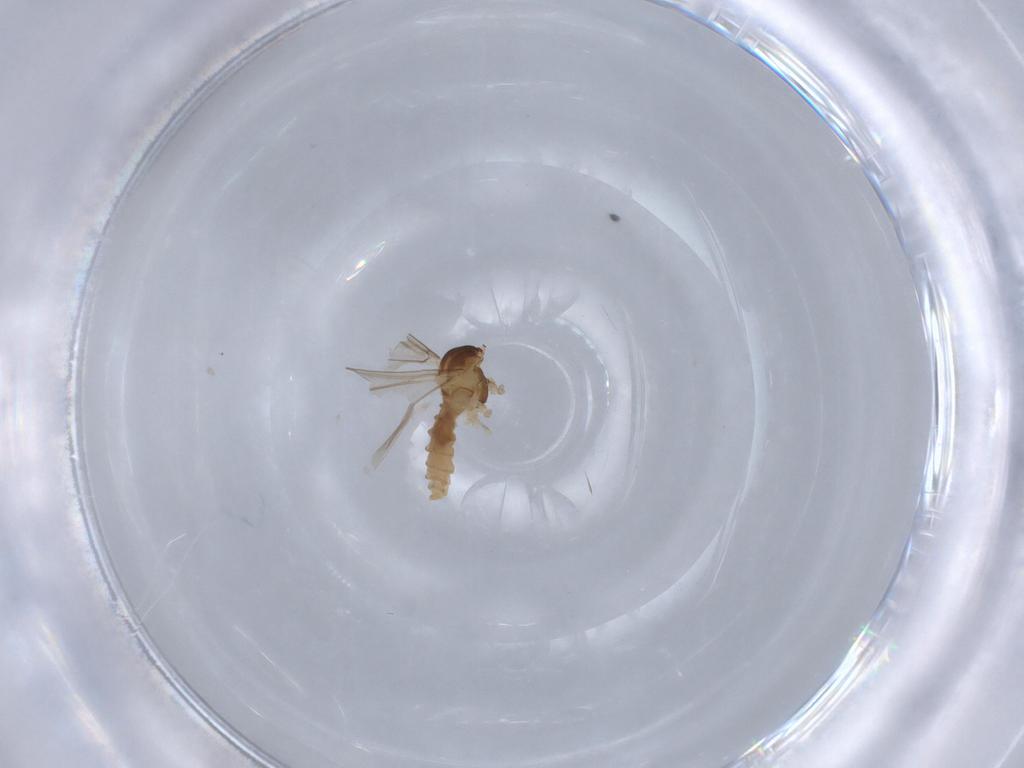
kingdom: Animalia
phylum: Arthropoda
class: Insecta
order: Diptera
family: Cecidomyiidae
